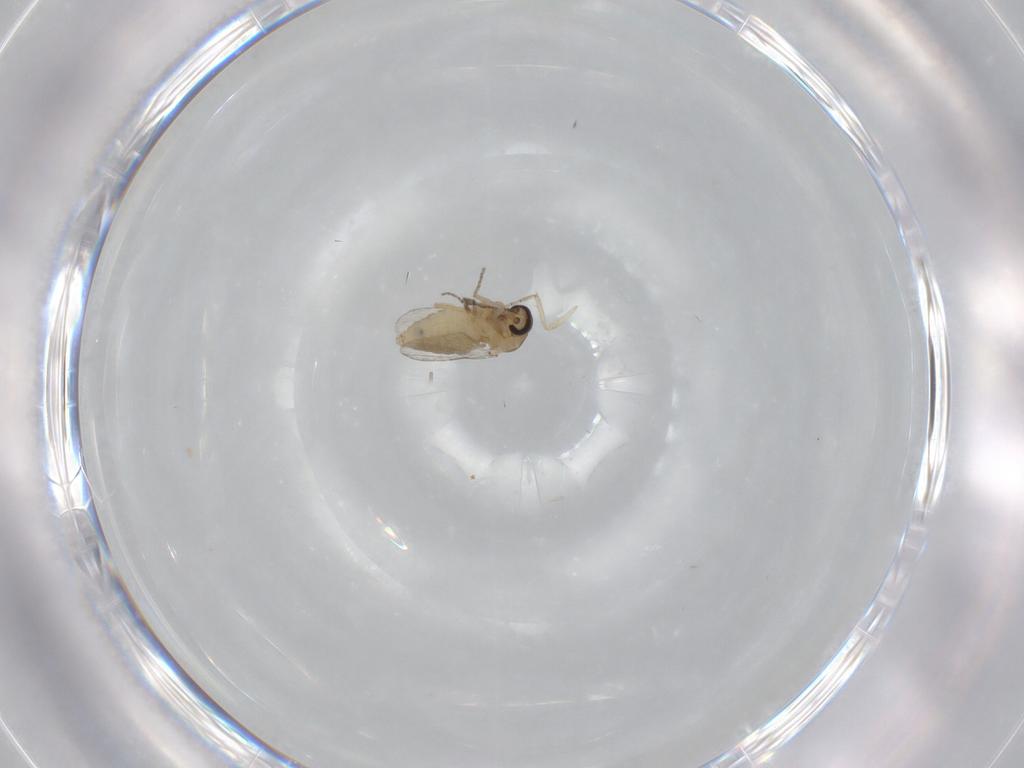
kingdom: Animalia
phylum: Arthropoda
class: Insecta
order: Diptera
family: Ceratopogonidae
